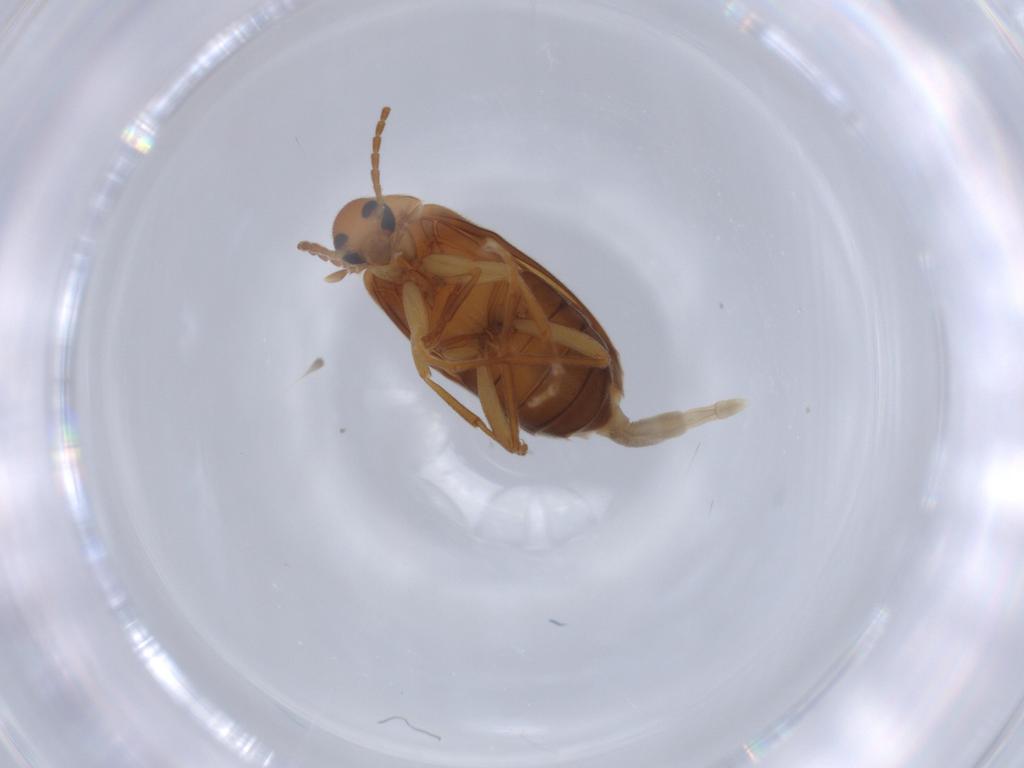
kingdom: Animalia
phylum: Arthropoda
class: Insecta
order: Coleoptera
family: Scraptiidae
